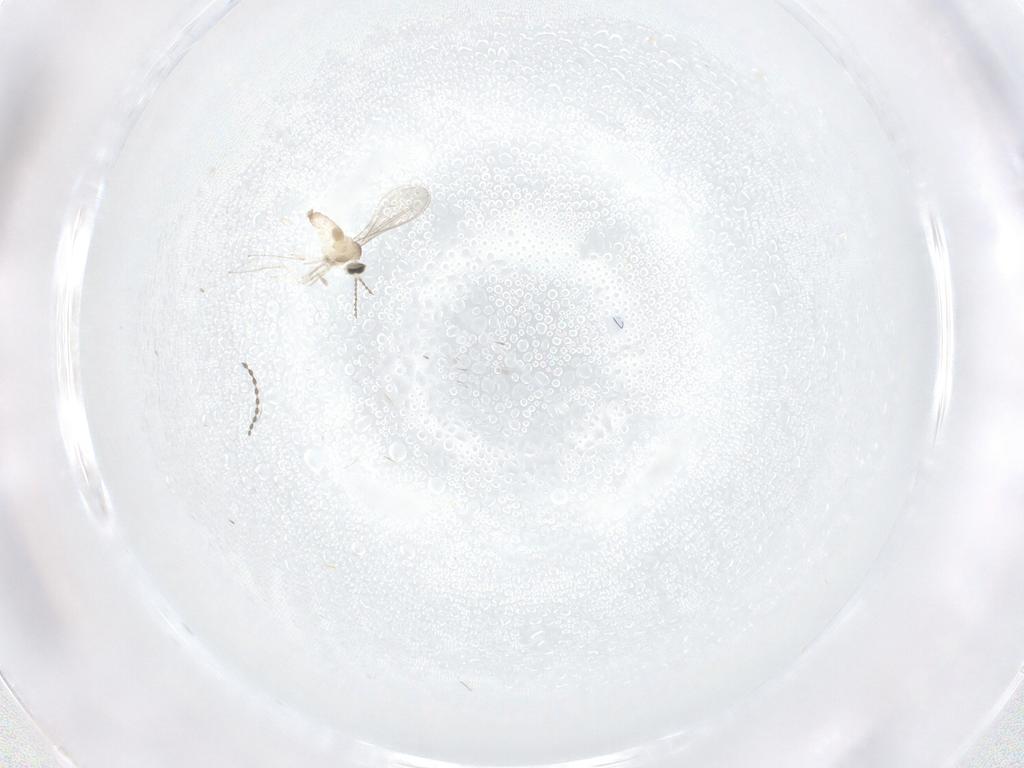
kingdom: Animalia
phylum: Arthropoda
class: Insecta
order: Diptera
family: Cecidomyiidae
